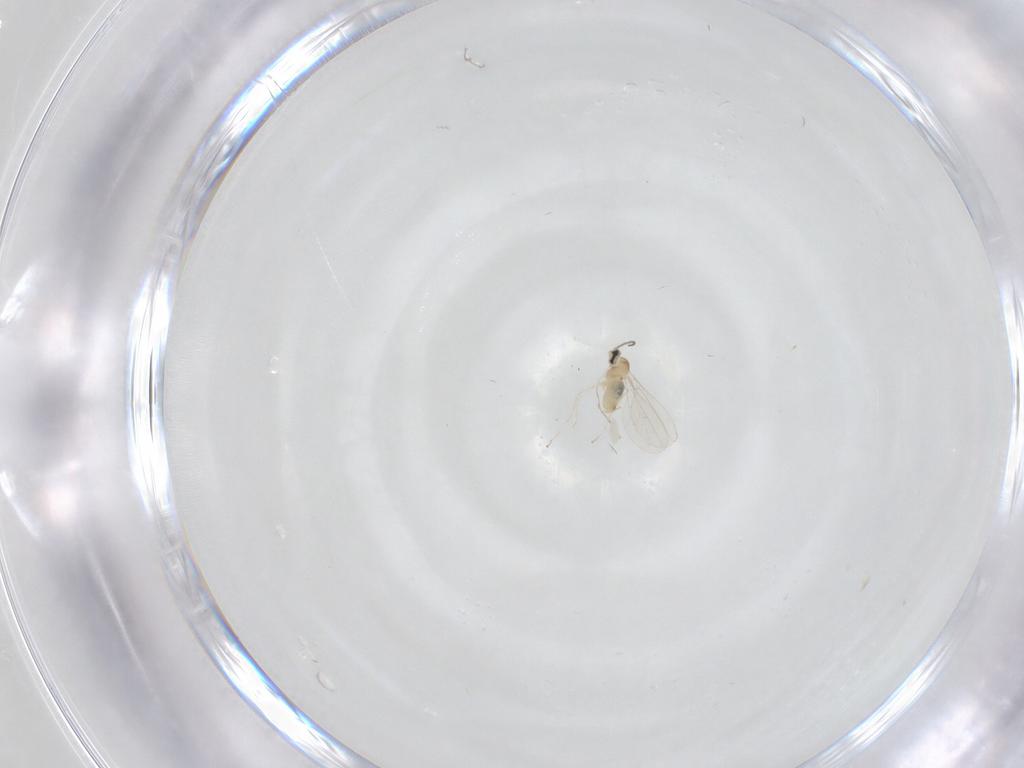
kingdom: Animalia
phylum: Arthropoda
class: Insecta
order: Diptera
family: Cecidomyiidae
